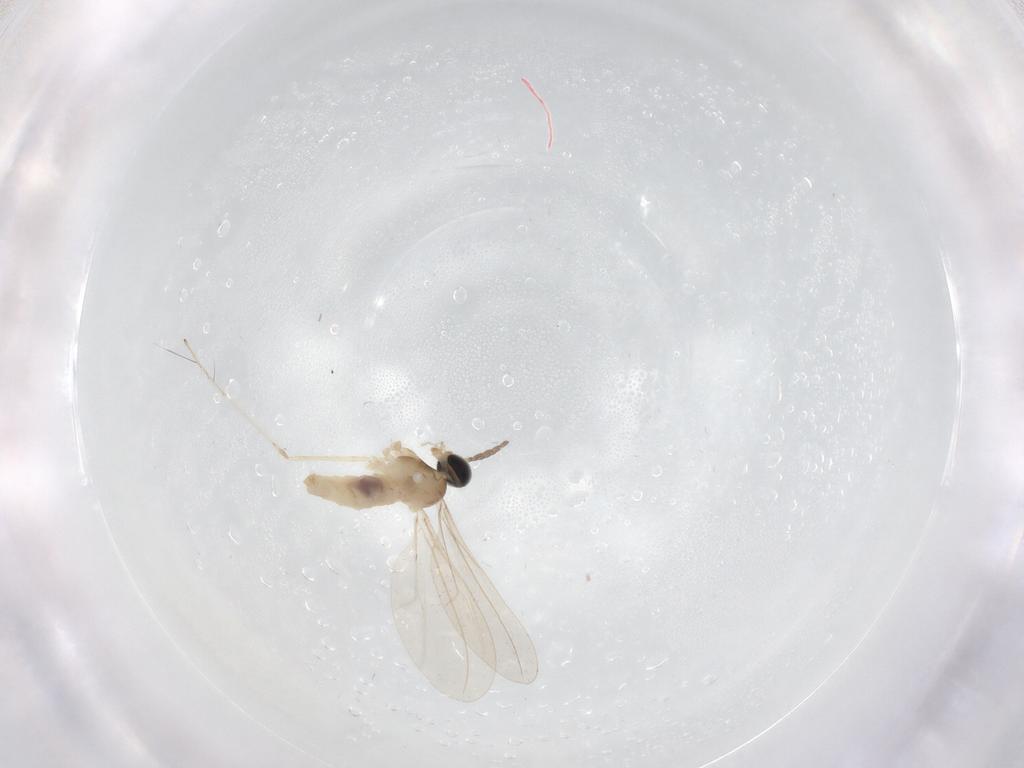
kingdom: Animalia
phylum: Arthropoda
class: Insecta
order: Diptera
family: Cecidomyiidae
